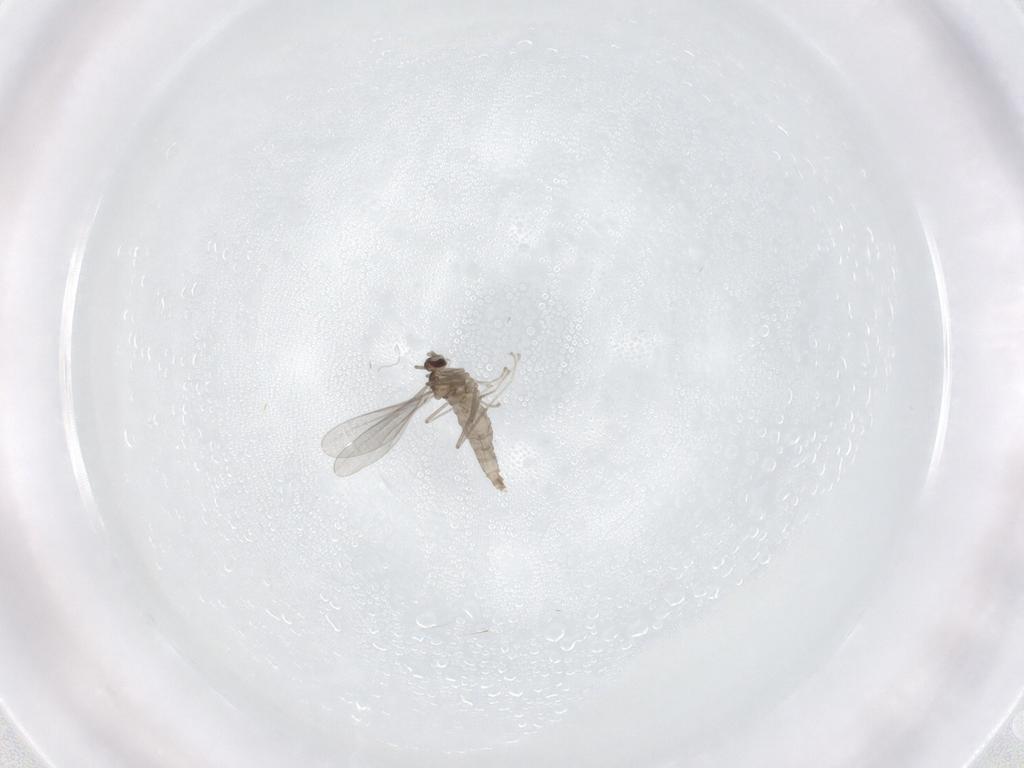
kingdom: Animalia
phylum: Arthropoda
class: Insecta
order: Diptera
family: Cecidomyiidae
